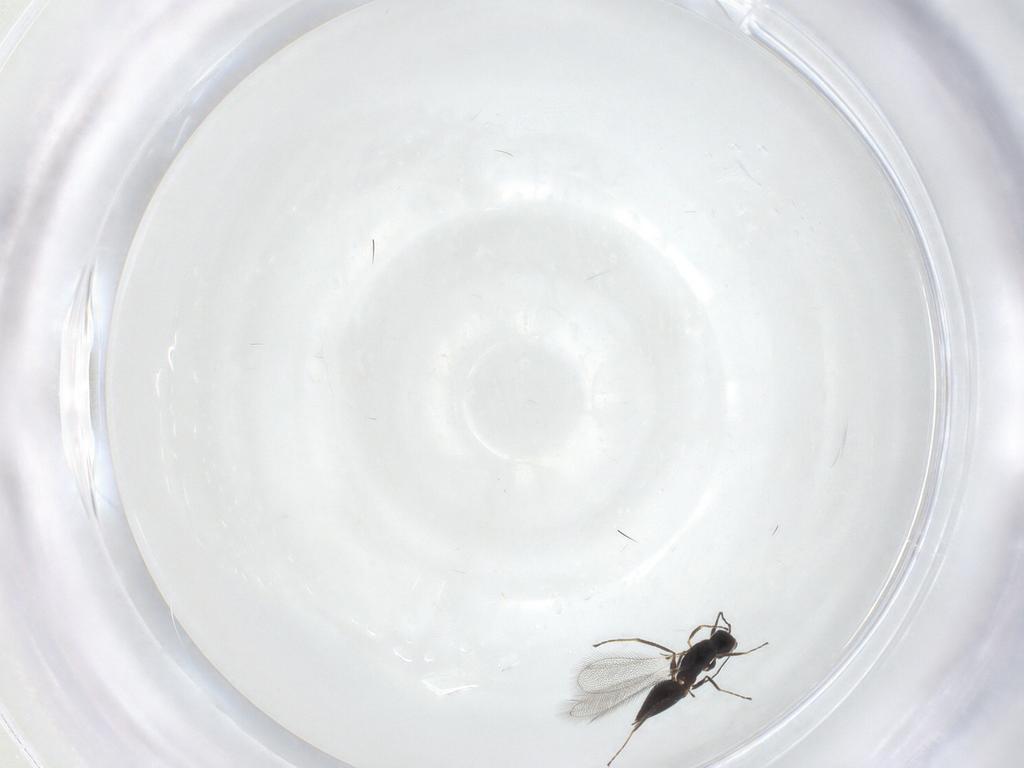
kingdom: Animalia
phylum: Arthropoda
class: Insecta
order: Hymenoptera
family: Mymaridae
